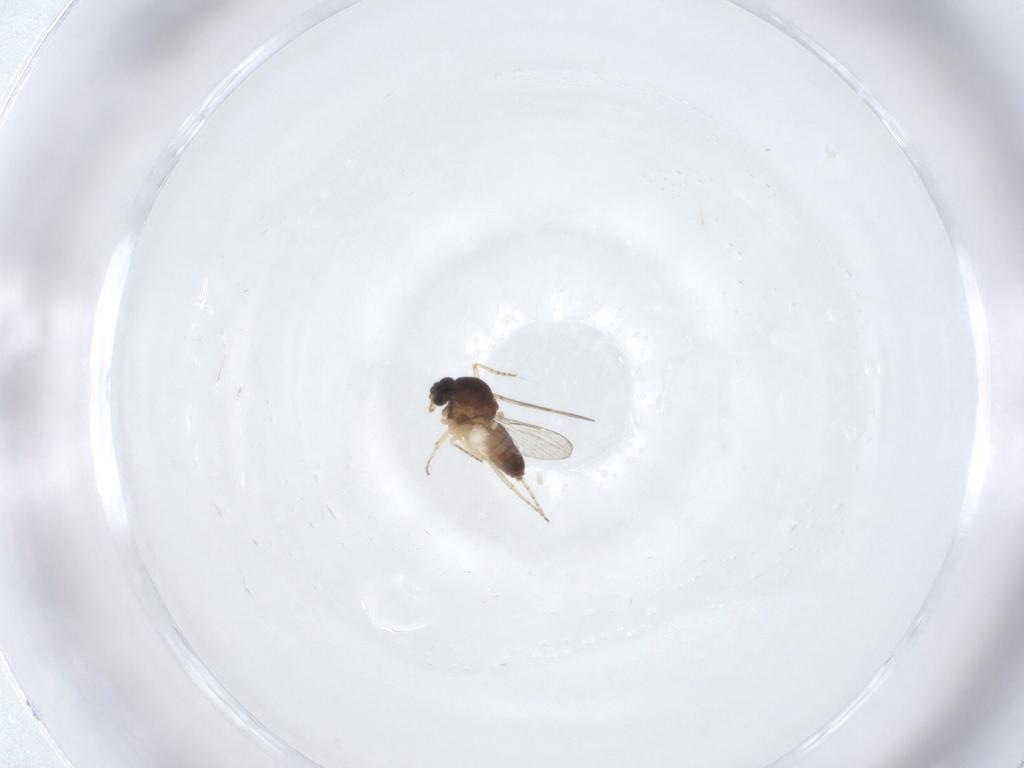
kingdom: Animalia
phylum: Arthropoda
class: Insecta
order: Diptera
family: Ceratopogonidae
